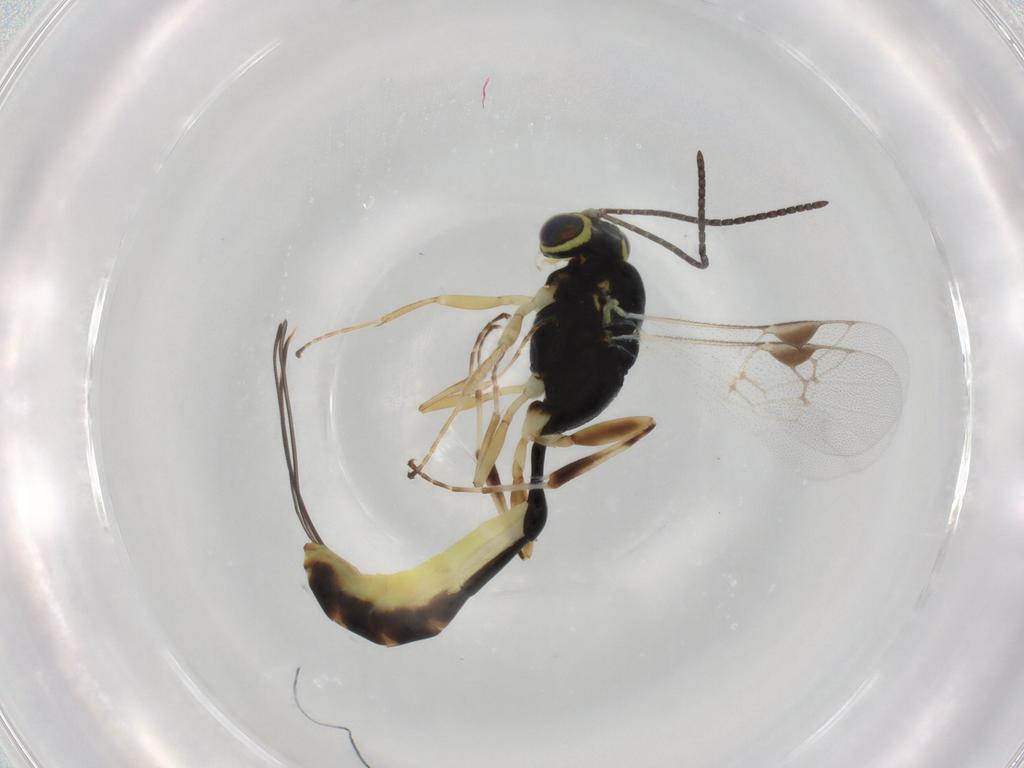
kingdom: Animalia
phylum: Arthropoda
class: Insecta
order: Hymenoptera
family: Ichneumonidae
